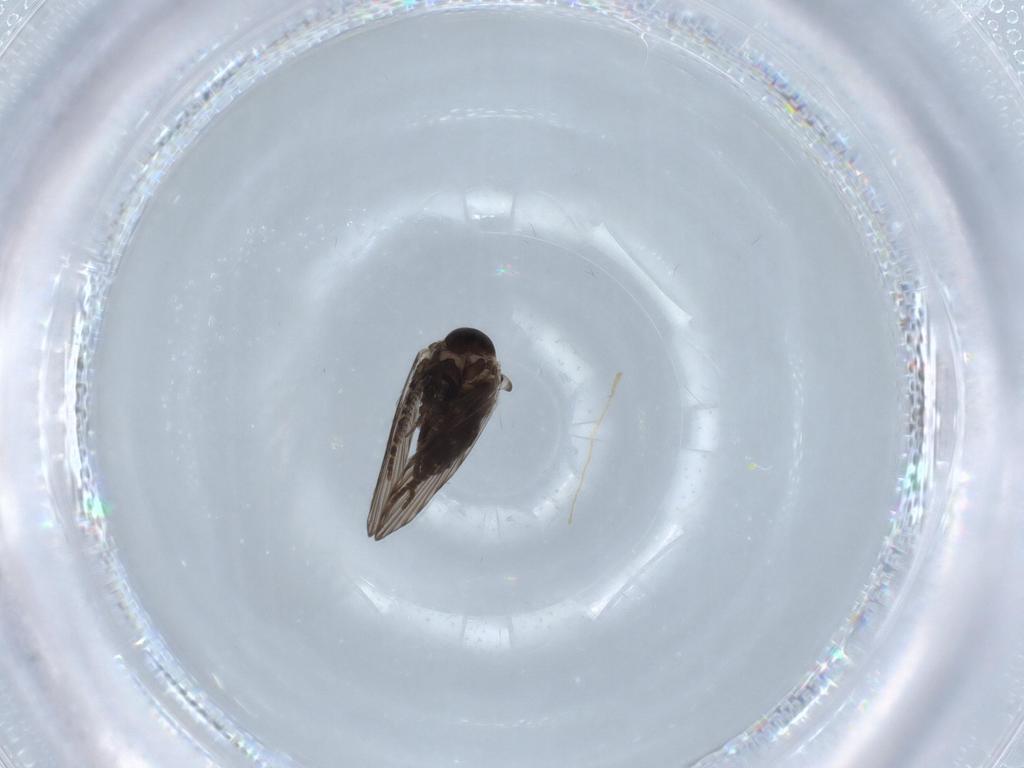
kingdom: Animalia
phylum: Arthropoda
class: Insecta
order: Diptera
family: Psychodidae
